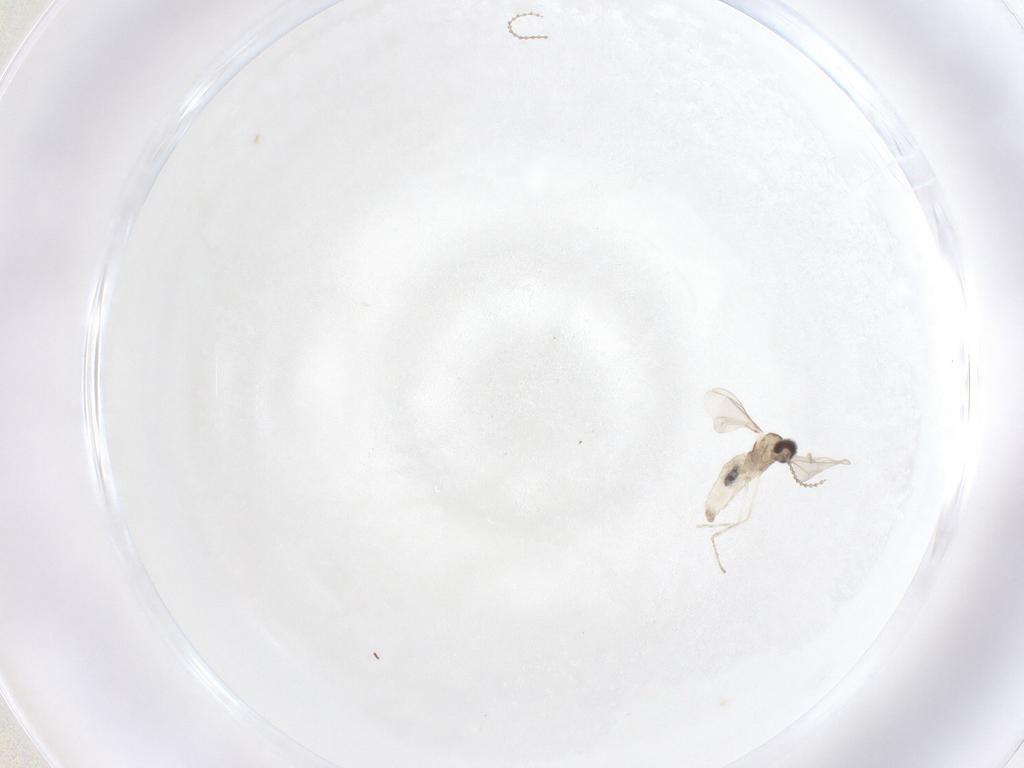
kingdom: Animalia
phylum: Arthropoda
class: Insecta
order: Diptera
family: Cecidomyiidae
